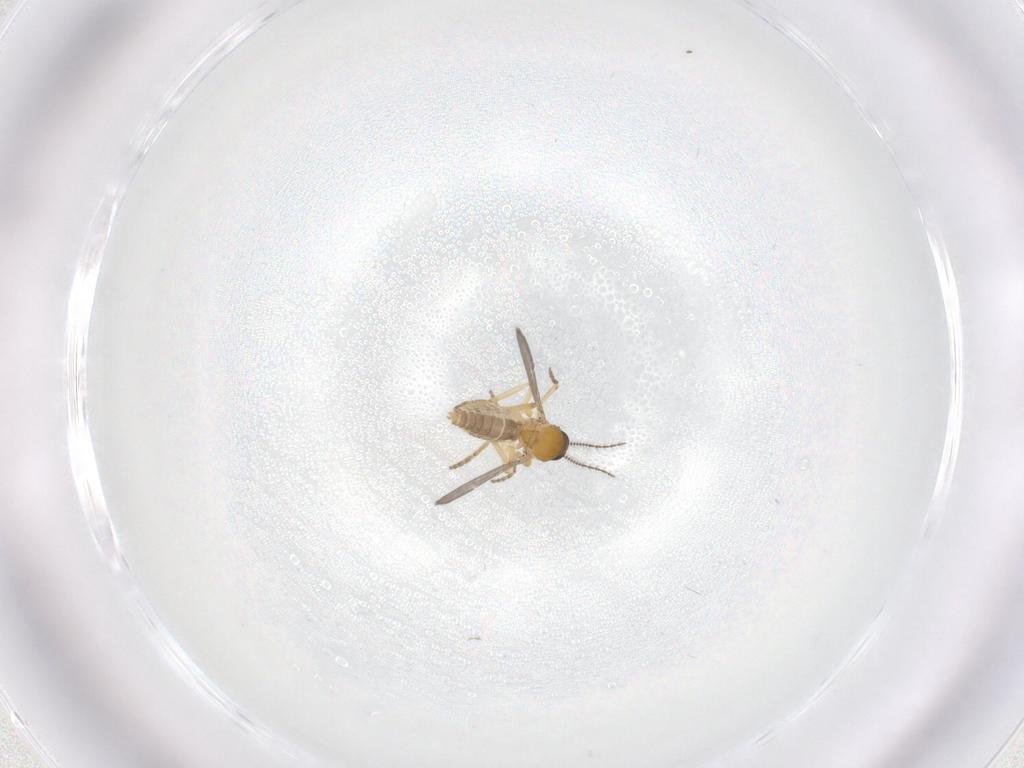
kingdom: Animalia
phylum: Arthropoda
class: Insecta
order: Diptera
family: Ceratopogonidae
